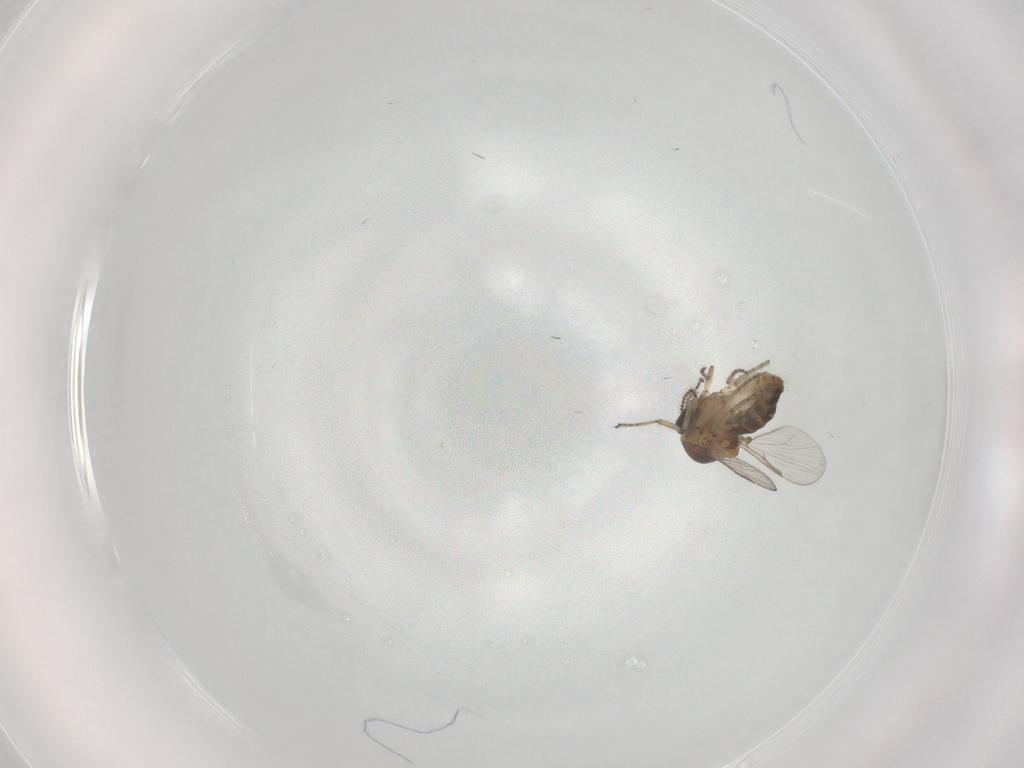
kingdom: Animalia
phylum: Arthropoda
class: Insecta
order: Diptera
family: Ceratopogonidae
